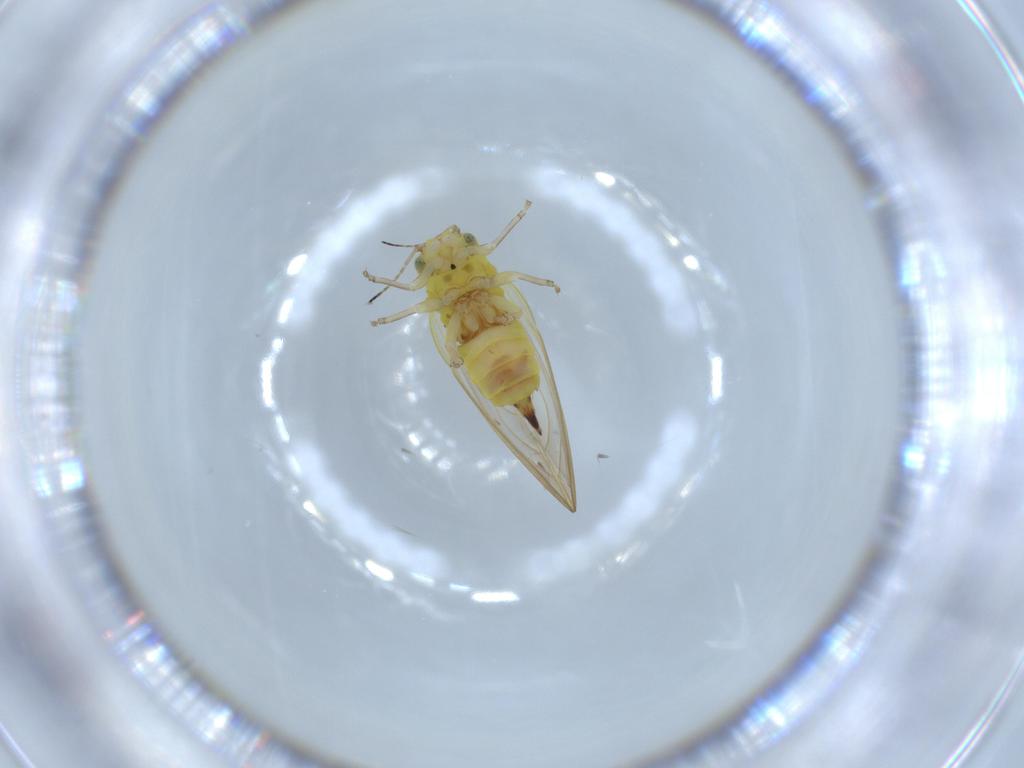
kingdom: Animalia
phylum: Arthropoda
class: Insecta
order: Hemiptera
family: Aphalaridae
